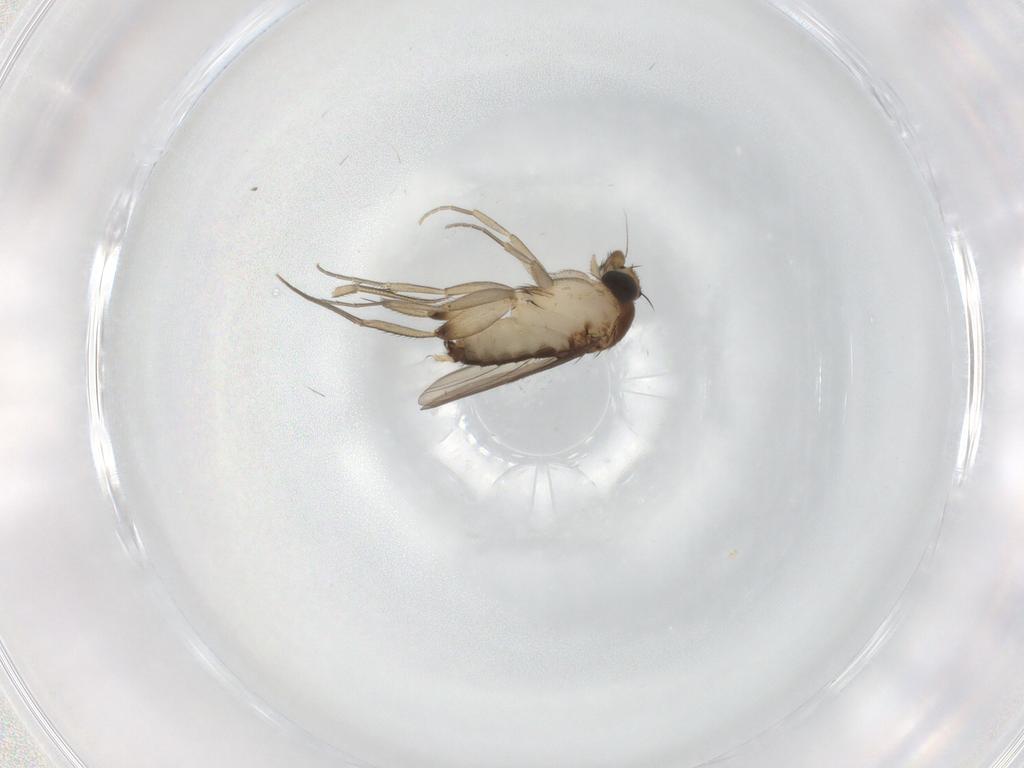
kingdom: Animalia
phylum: Arthropoda
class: Insecta
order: Diptera
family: Phoridae
